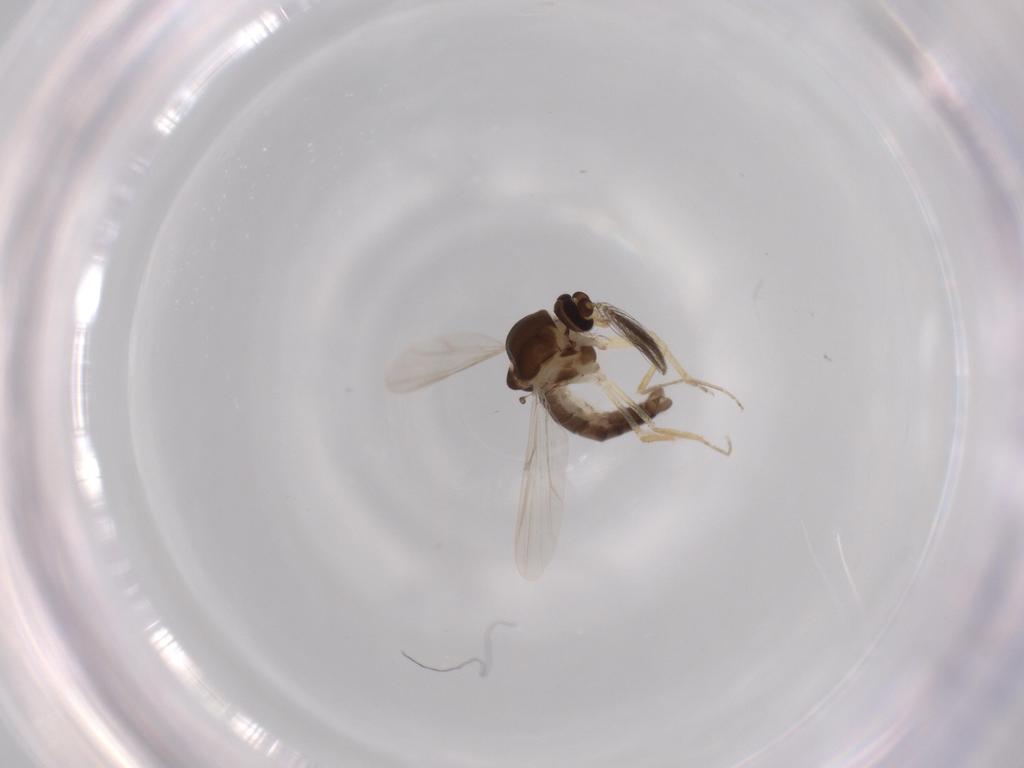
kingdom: Animalia
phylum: Arthropoda
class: Insecta
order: Diptera
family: Ceratopogonidae
